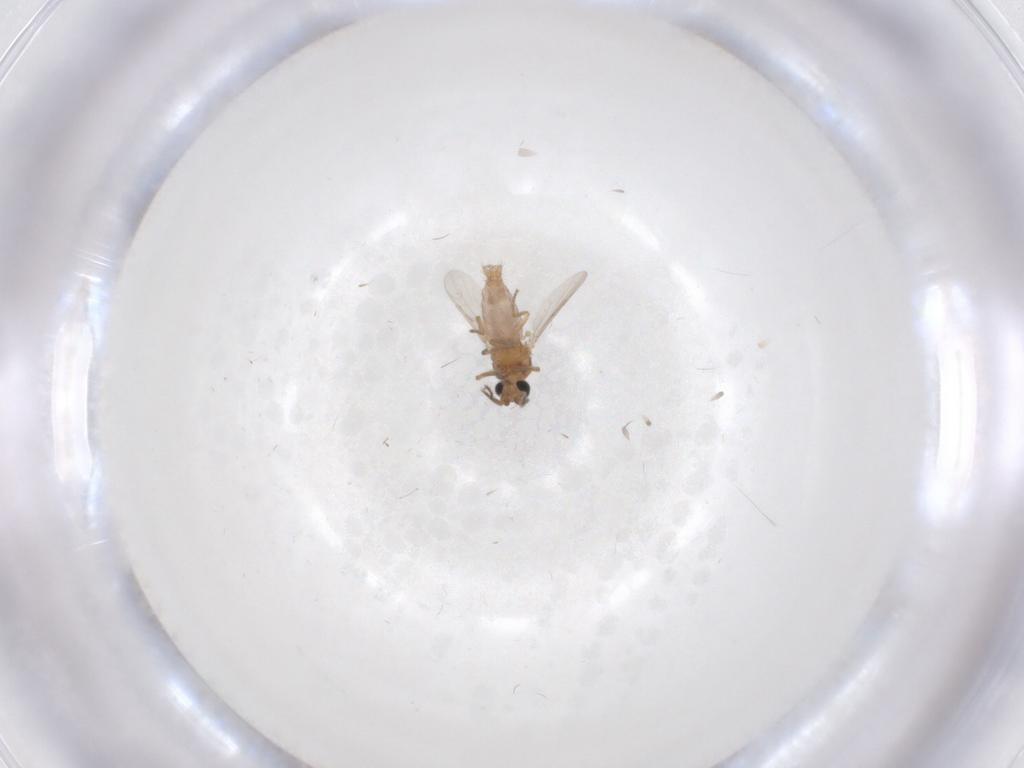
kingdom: Animalia
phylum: Arthropoda
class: Insecta
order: Diptera
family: Ceratopogonidae
